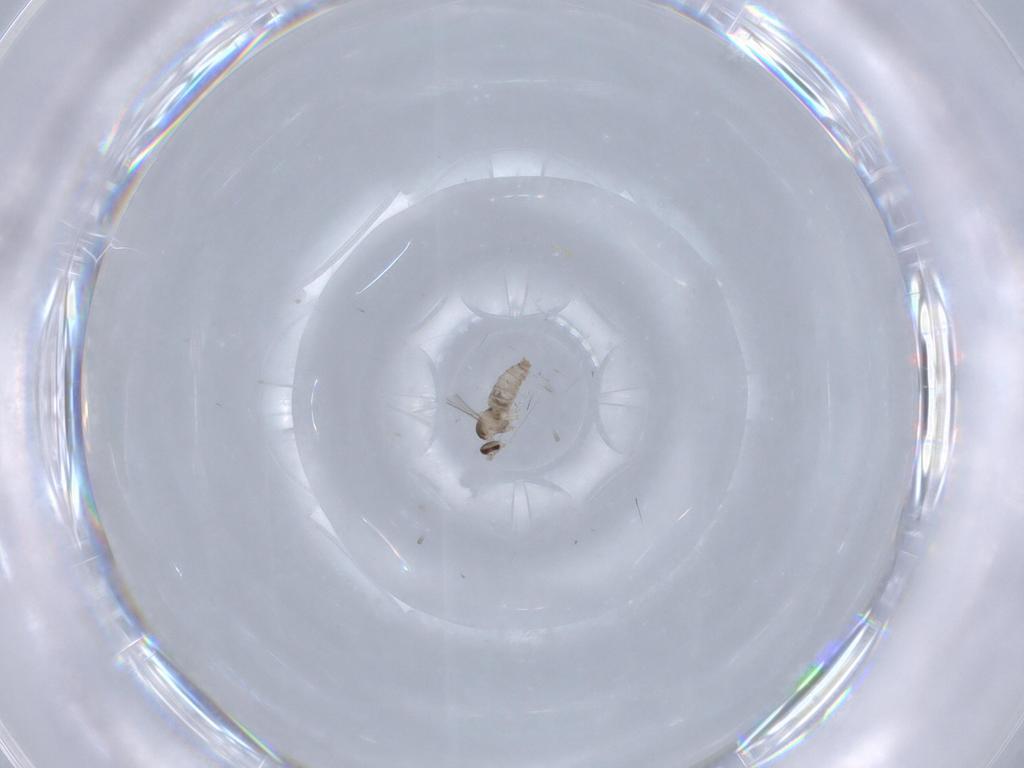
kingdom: Animalia
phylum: Arthropoda
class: Insecta
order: Diptera
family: Cecidomyiidae
